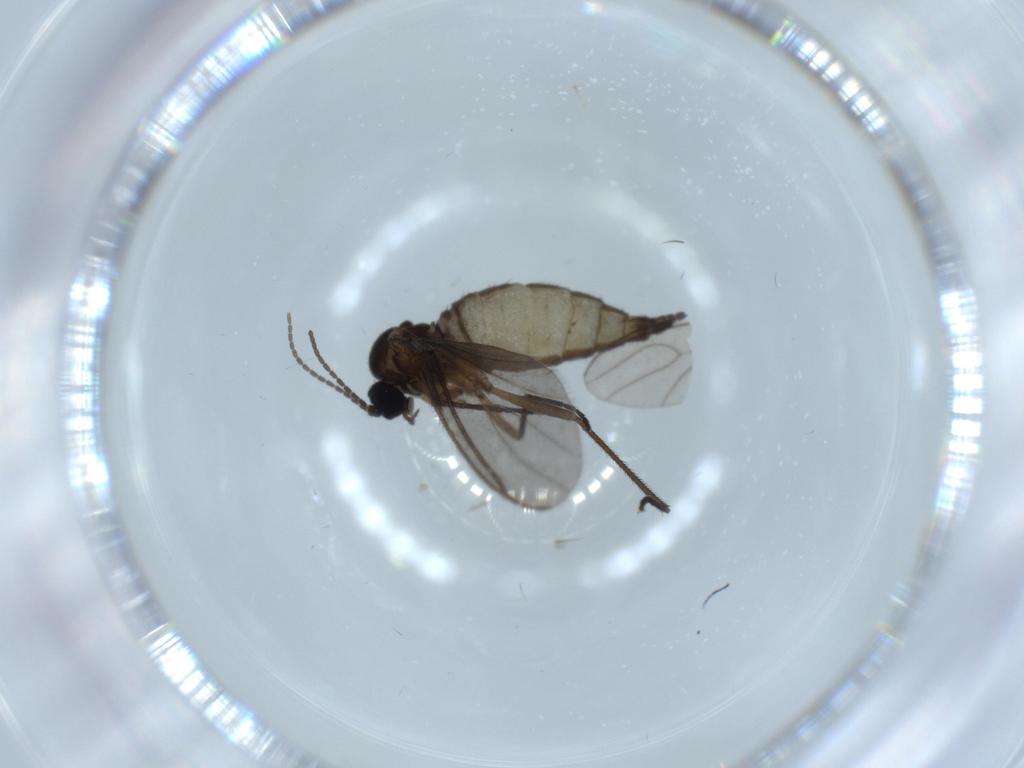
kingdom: Animalia
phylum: Arthropoda
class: Insecta
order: Diptera
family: Sciaridae
